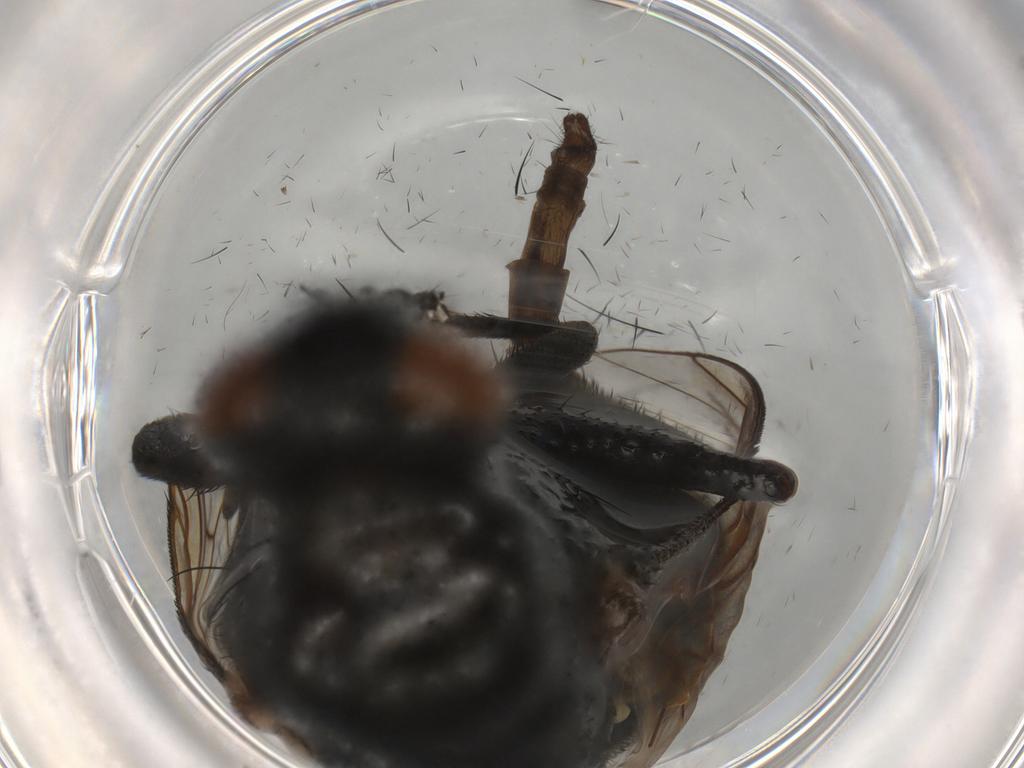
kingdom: Animalia
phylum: Arthropoda
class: Insecta
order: Diptera
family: Muscidae
